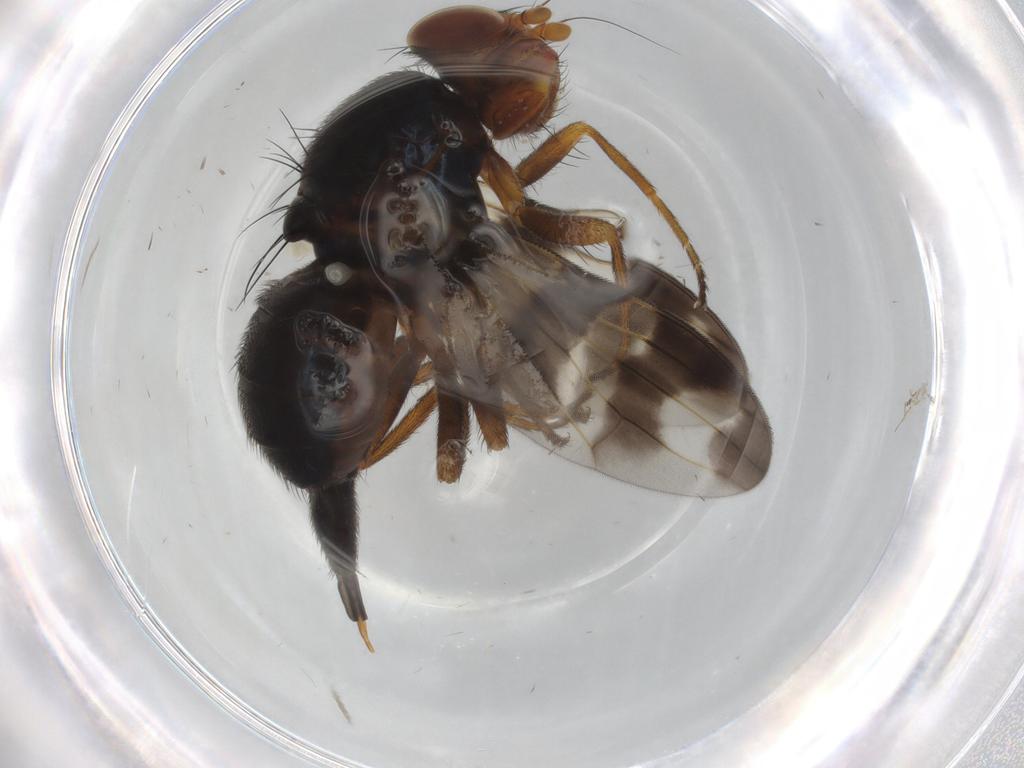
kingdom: Animalia
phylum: Arthropoda
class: Insecta
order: Diptera
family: Ulidiidae
